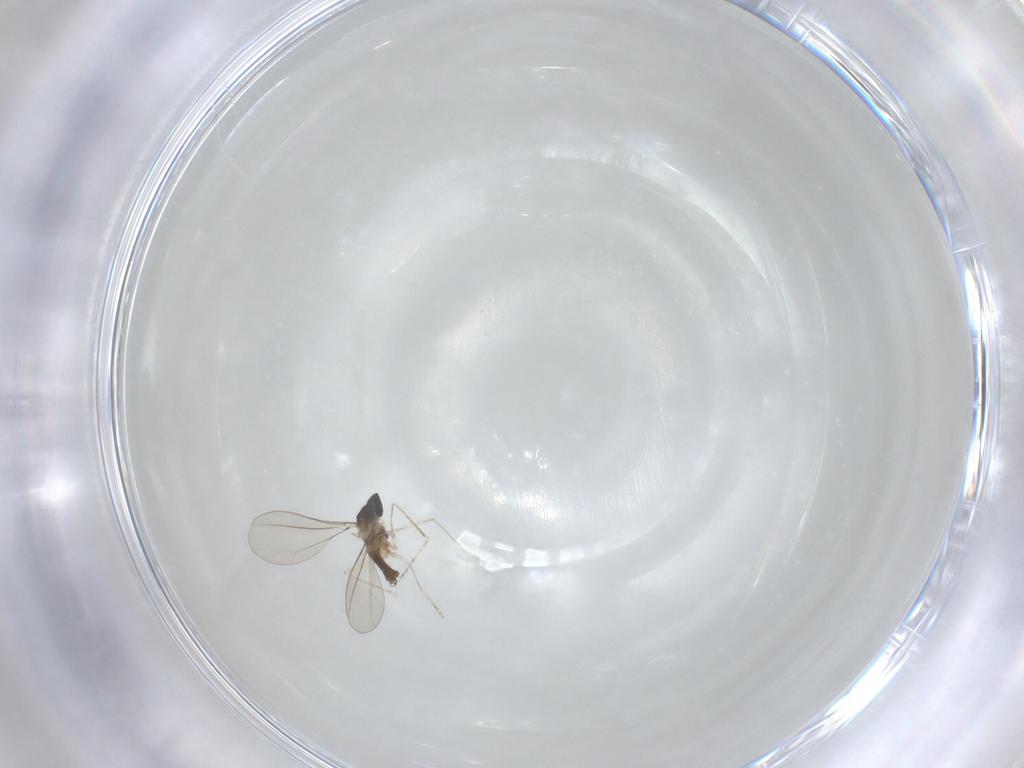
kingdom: Animalia
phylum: Arthropoda
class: Insecta
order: Diptera
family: Cecidomyiidae
